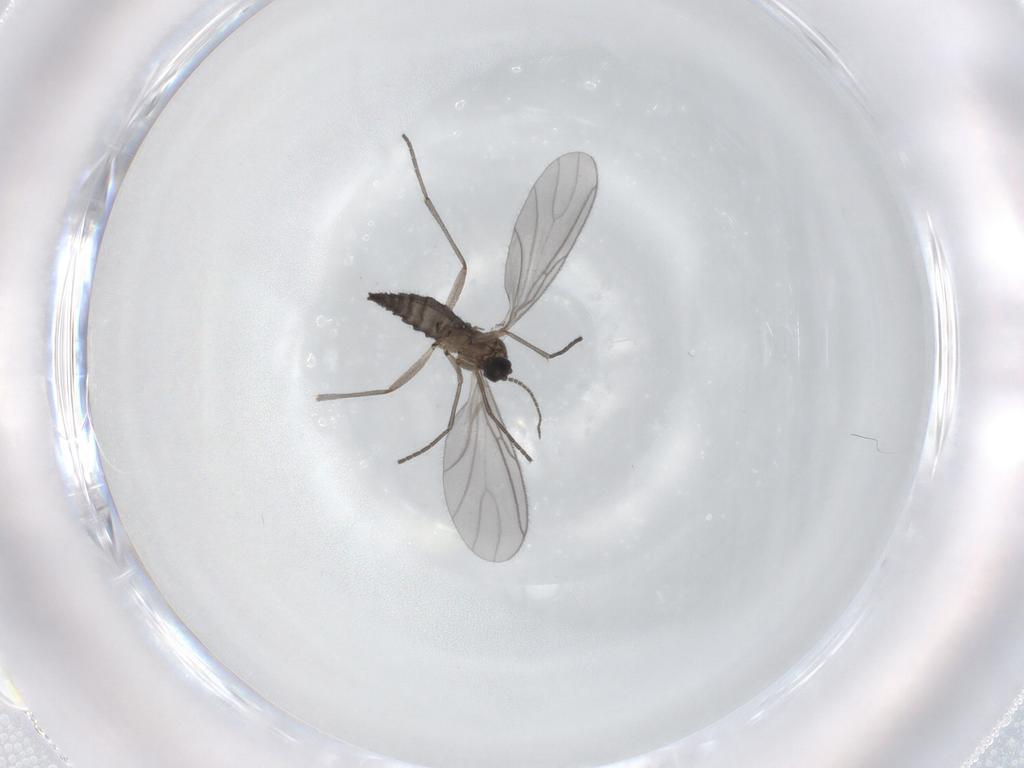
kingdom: Animalia
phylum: Arthropoda
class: Insecta
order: Diptera
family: Sciaridae
